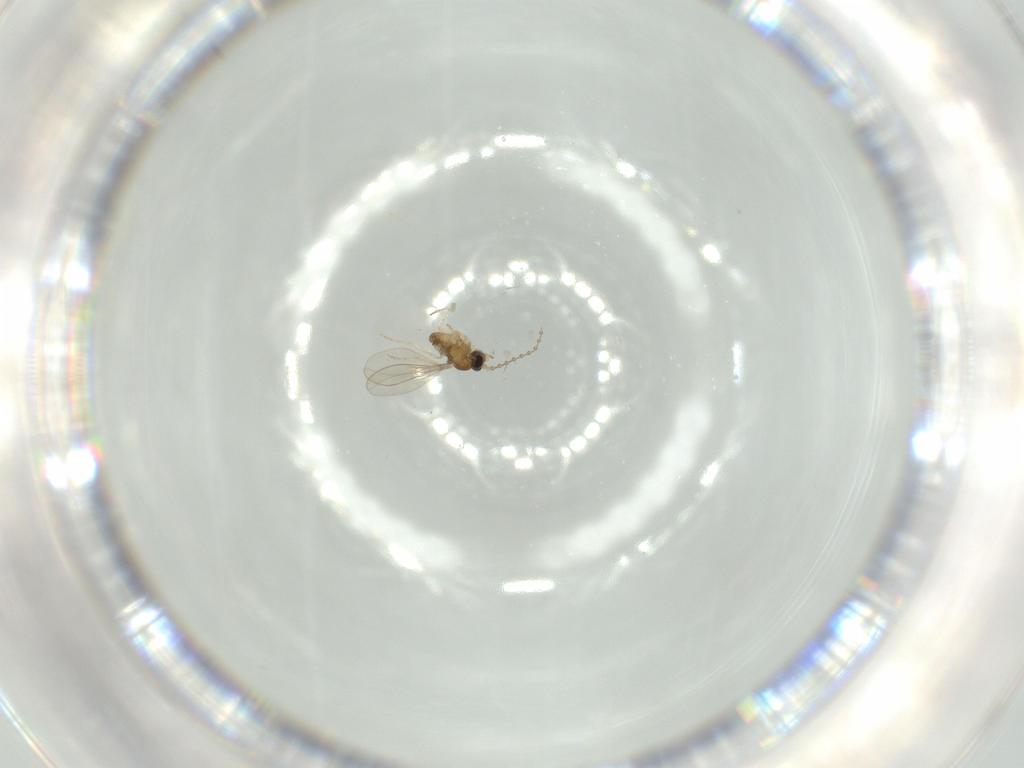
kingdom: Animalia
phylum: Arthropoda
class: Insecta
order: Diptera
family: Cecidomyiidae
